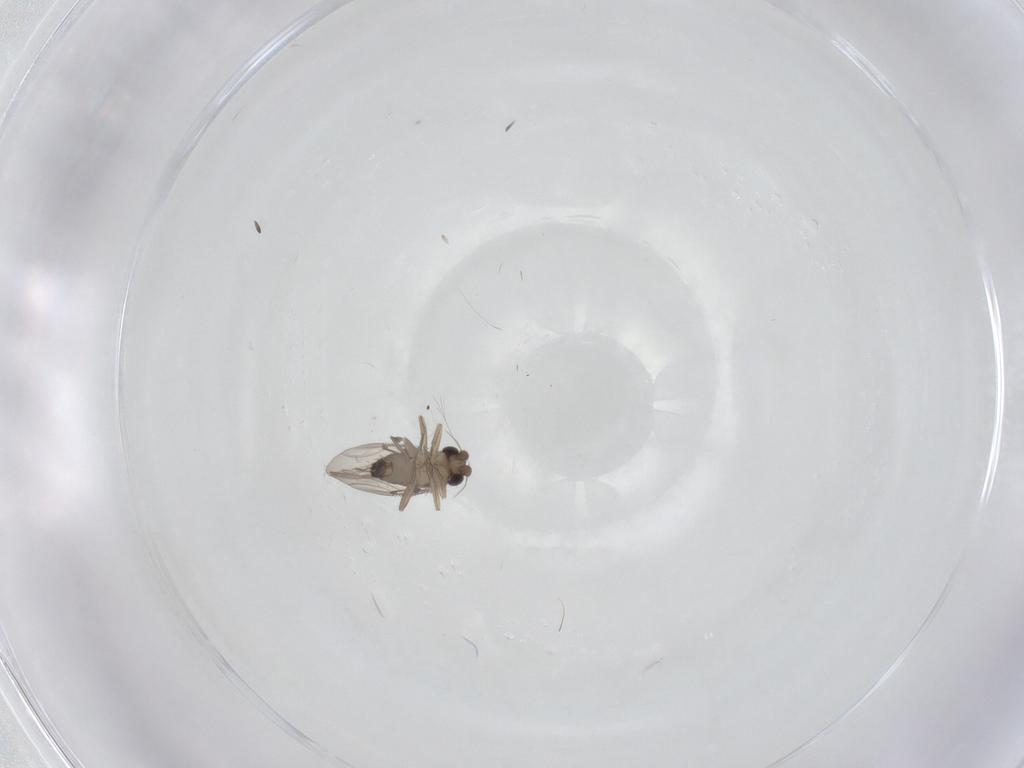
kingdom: Animalia
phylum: Arthropoda
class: Insecta
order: Diptera
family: Phoridae
